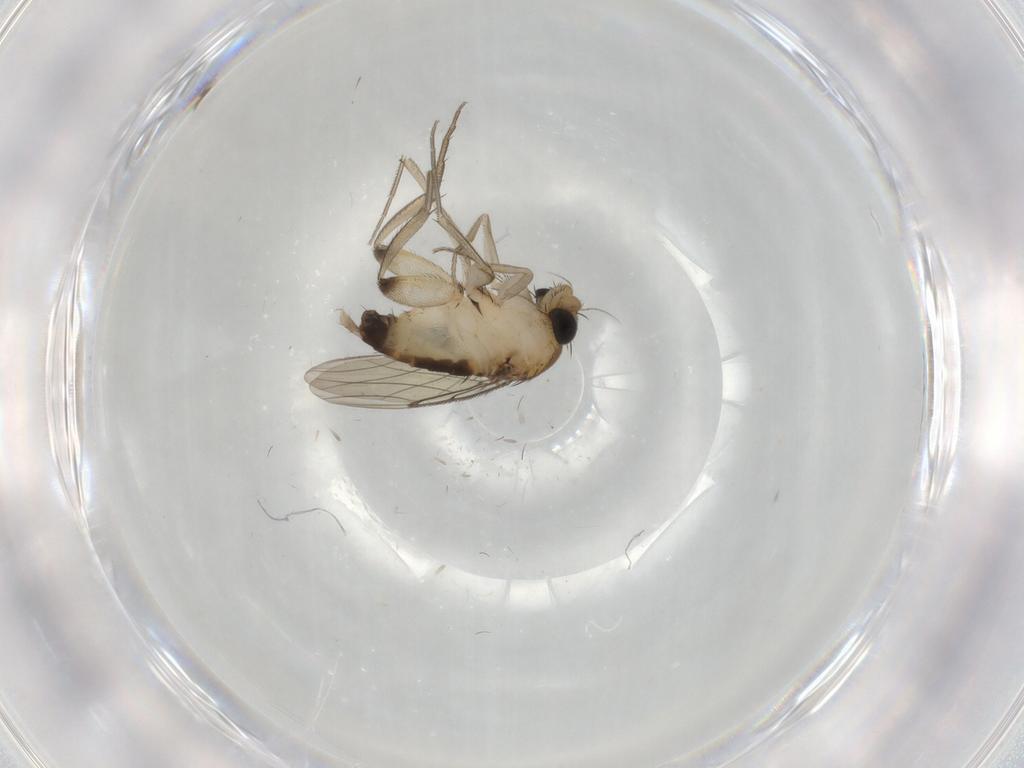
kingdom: Animalia
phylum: Arthropoda
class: Insecta
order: Diptera
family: Phoridae
